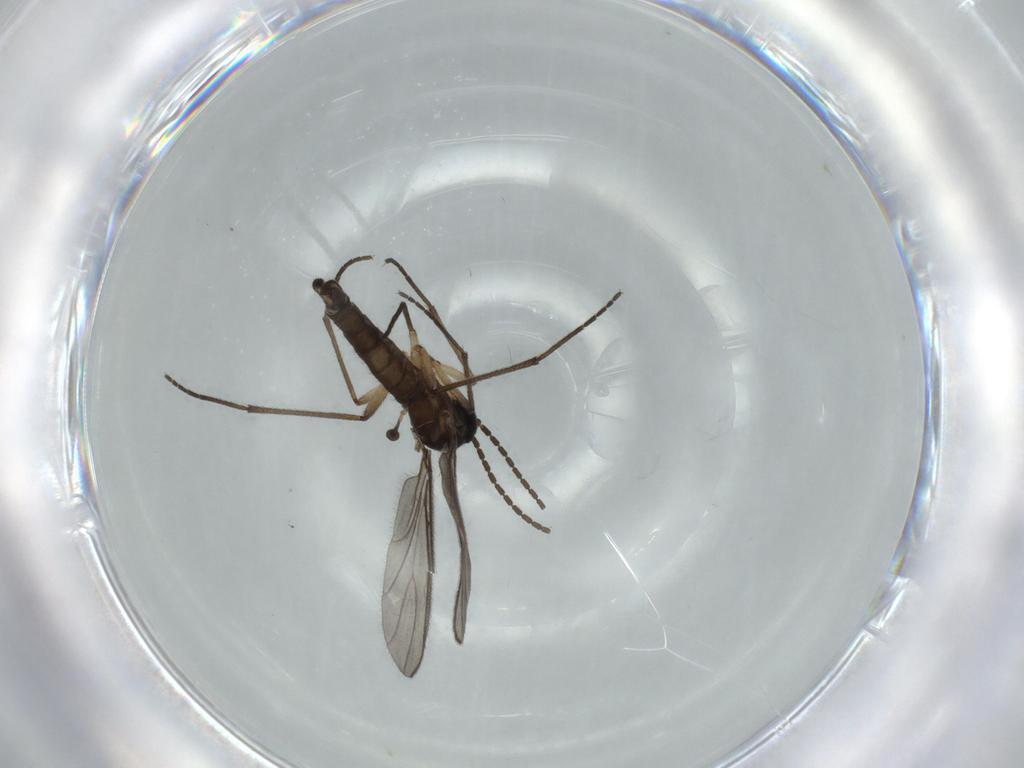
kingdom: Animalia
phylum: Arthropoda
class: Insecta
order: Diptera
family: Sciaridae
